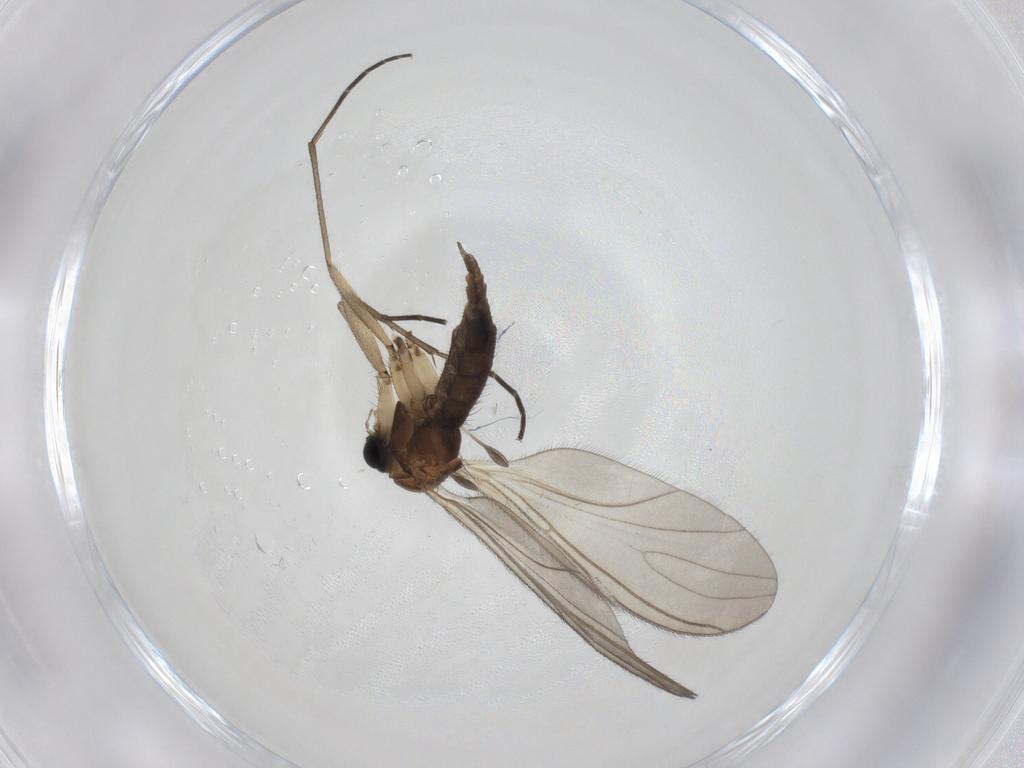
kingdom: Animalia
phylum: Arthropoda
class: Insecta
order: Diptera
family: Sciaridae
